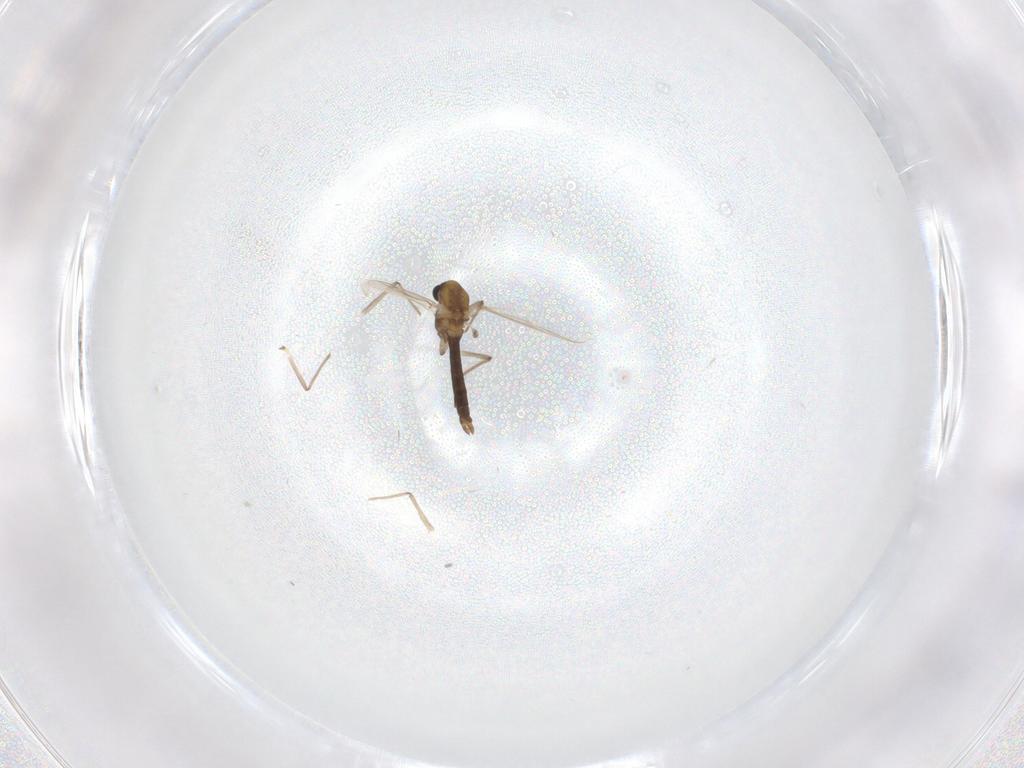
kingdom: Animalia
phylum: Arthropoda
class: Insecta
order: Diptera
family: Chironomidae
